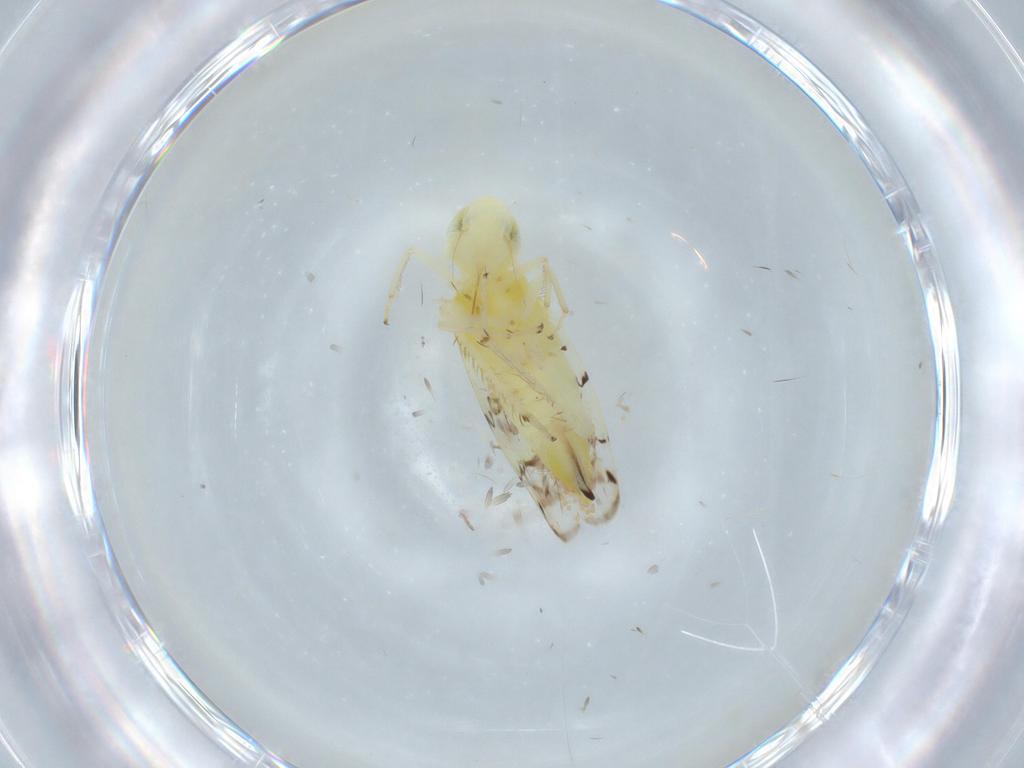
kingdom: Animalia
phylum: Arthropoda
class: Insecta
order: Hemiptera
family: Cicadellidae
